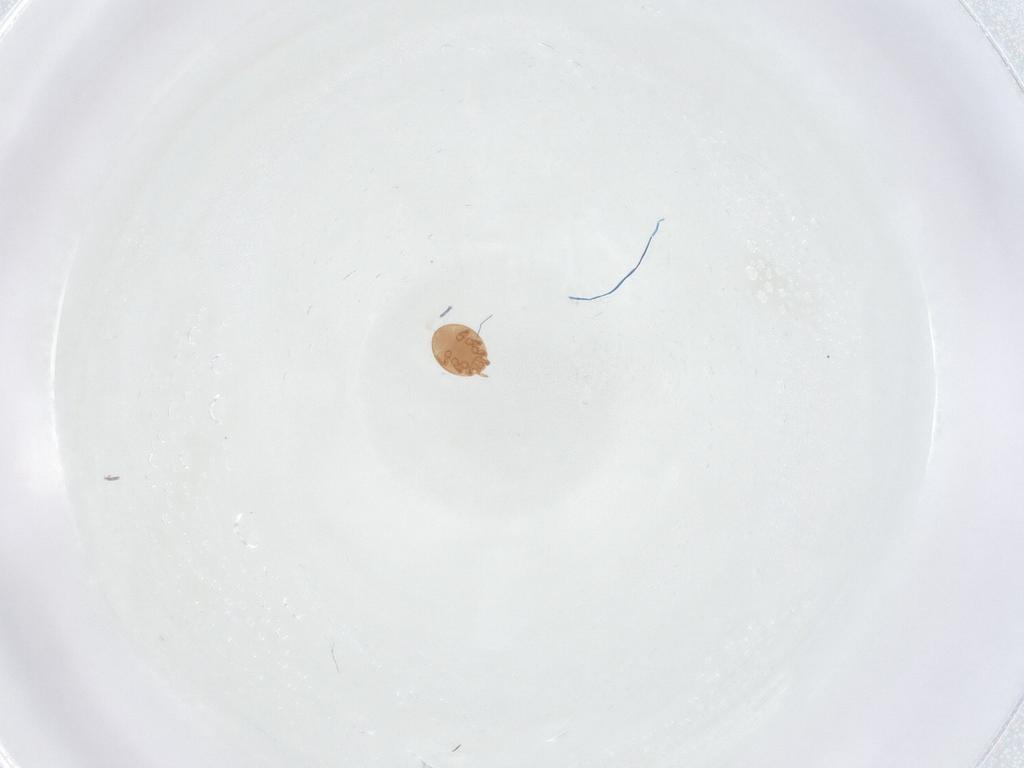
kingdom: Animalia
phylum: Arthropoda
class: Arachnida
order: Mesostigmata
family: Trematuridae
